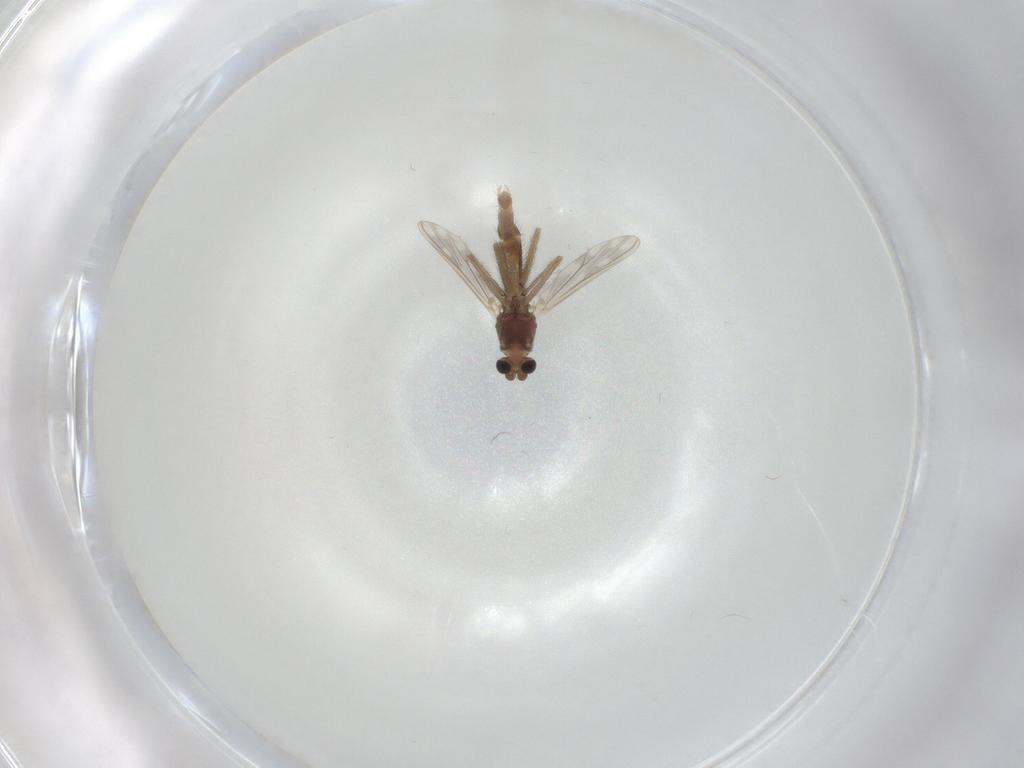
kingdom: Animalia
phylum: Arthropoda
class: Insecta
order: Diptera
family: Chironomidae
